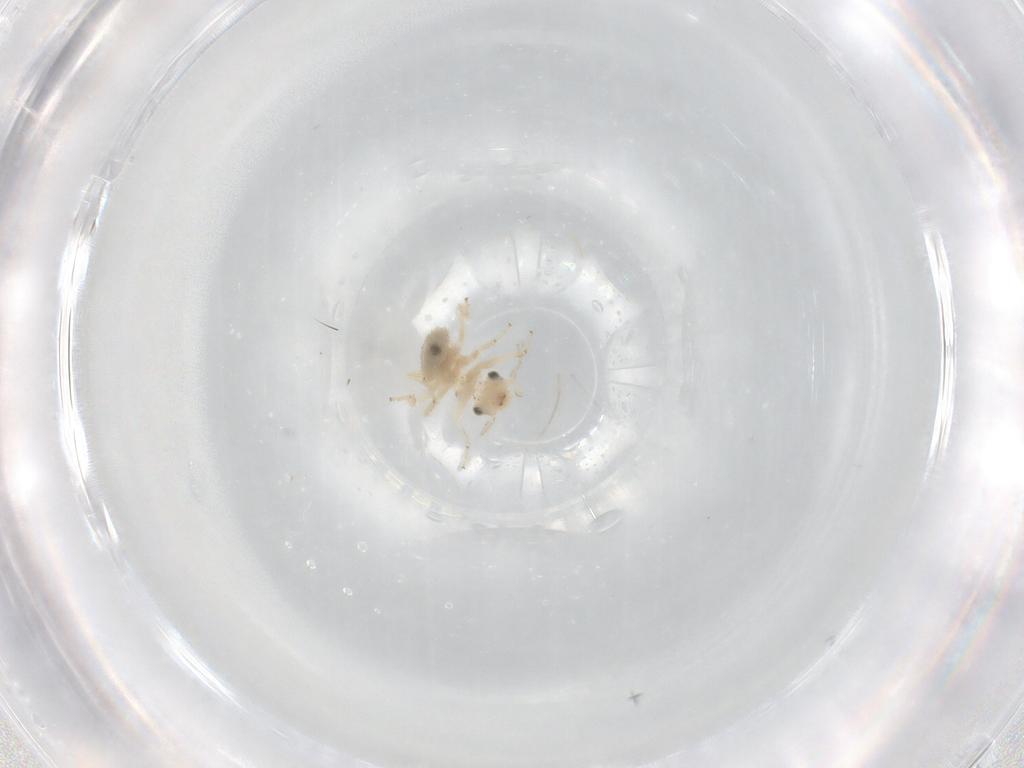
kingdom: Animalia
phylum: Arthropoda
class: Insecta
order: Psocodea
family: Lepidopsocidae
